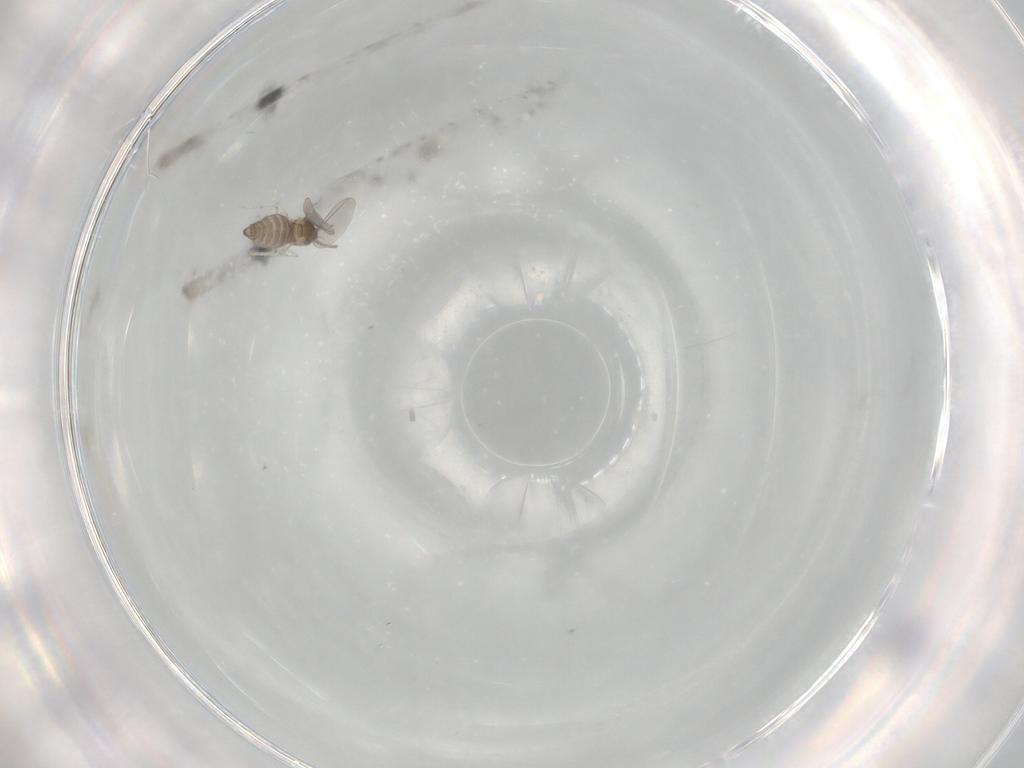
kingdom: Animalia
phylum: Arthropoda
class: Insecta
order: Diptera
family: Cecidomyiidae
